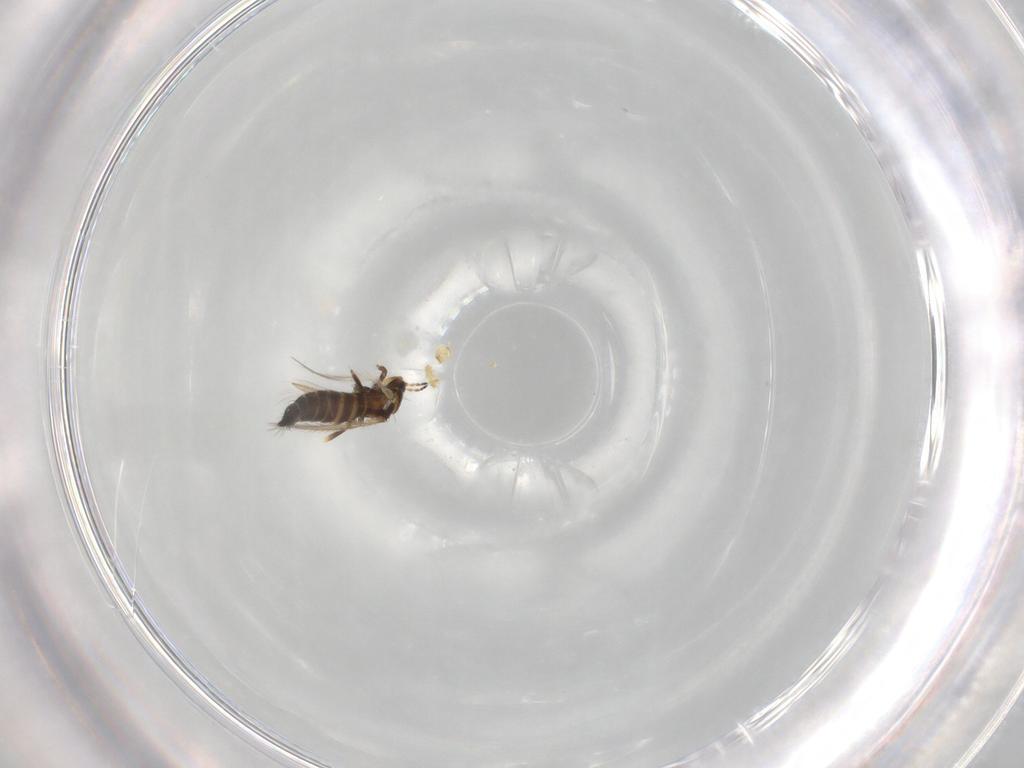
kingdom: Animalia
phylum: Arthropoda
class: Insecta
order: Thysanoptera
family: Thripidae
